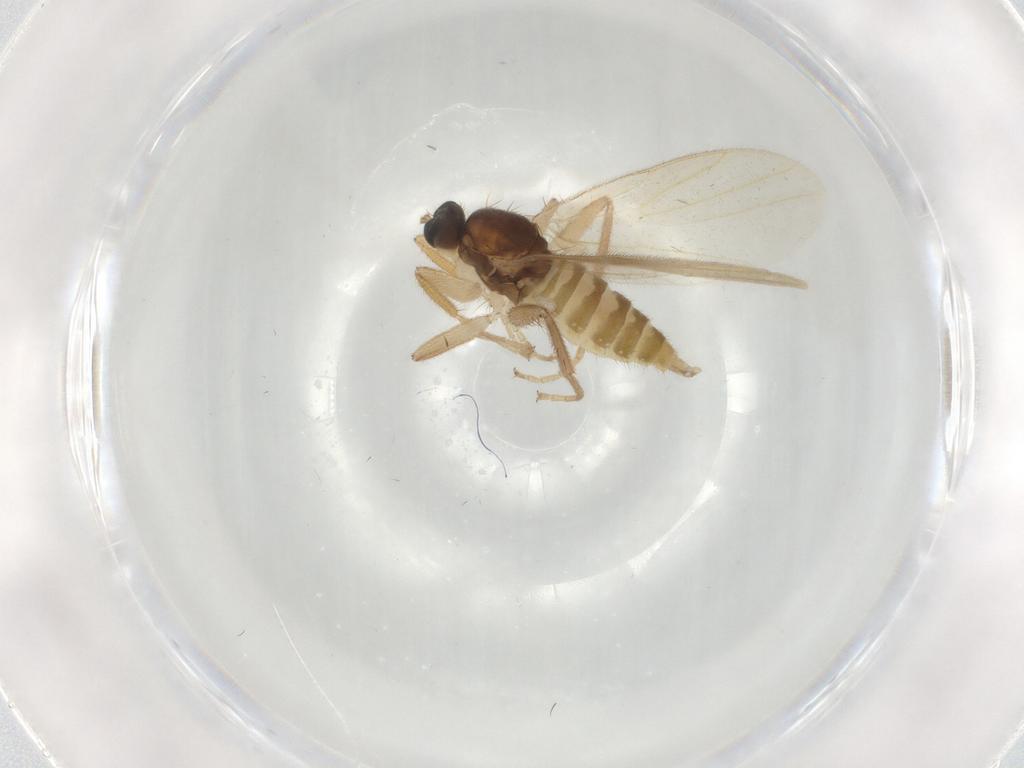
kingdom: Animalia
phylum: Arthropoda
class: Insecta
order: Diptera
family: Hybotidae
